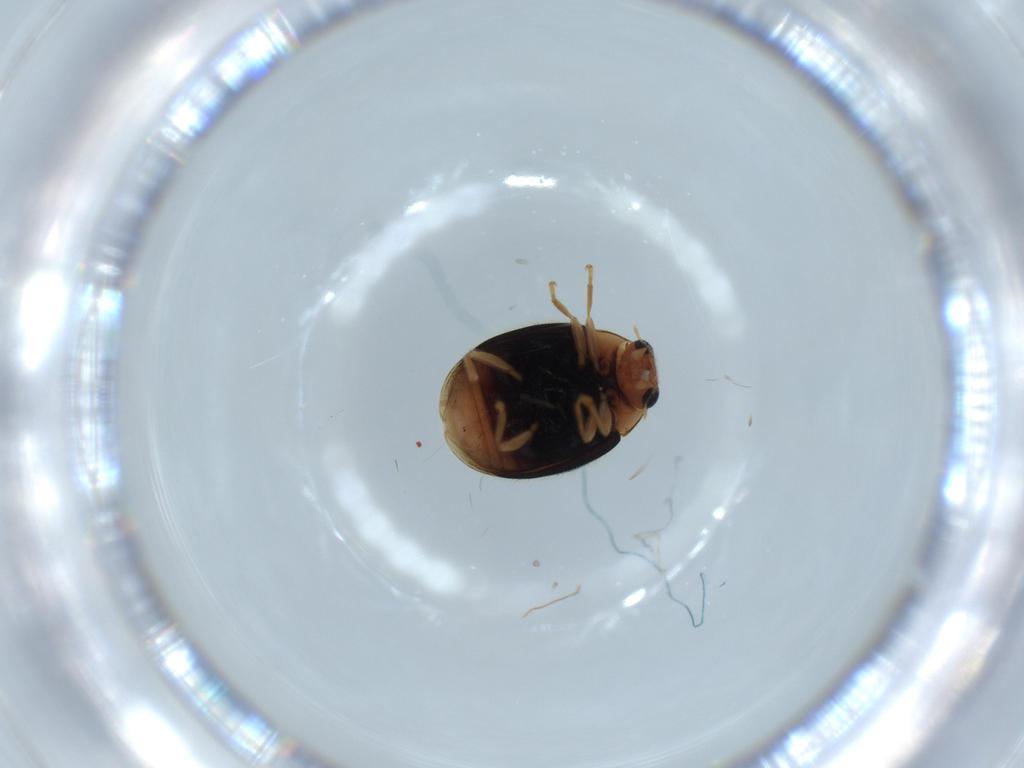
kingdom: Animalia
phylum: Arthropoda
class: Insecta
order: Coleoptera
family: Coccinellidae
